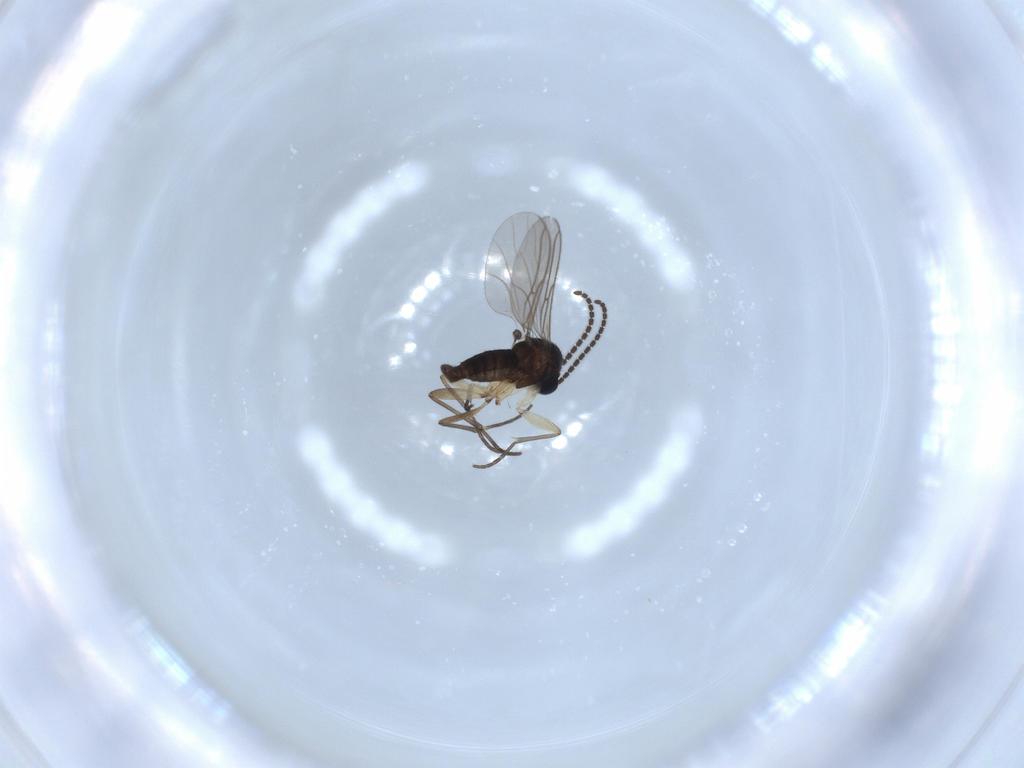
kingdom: Animalia
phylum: Arthropoda
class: Insecta
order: Diptera
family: Sciaridae
